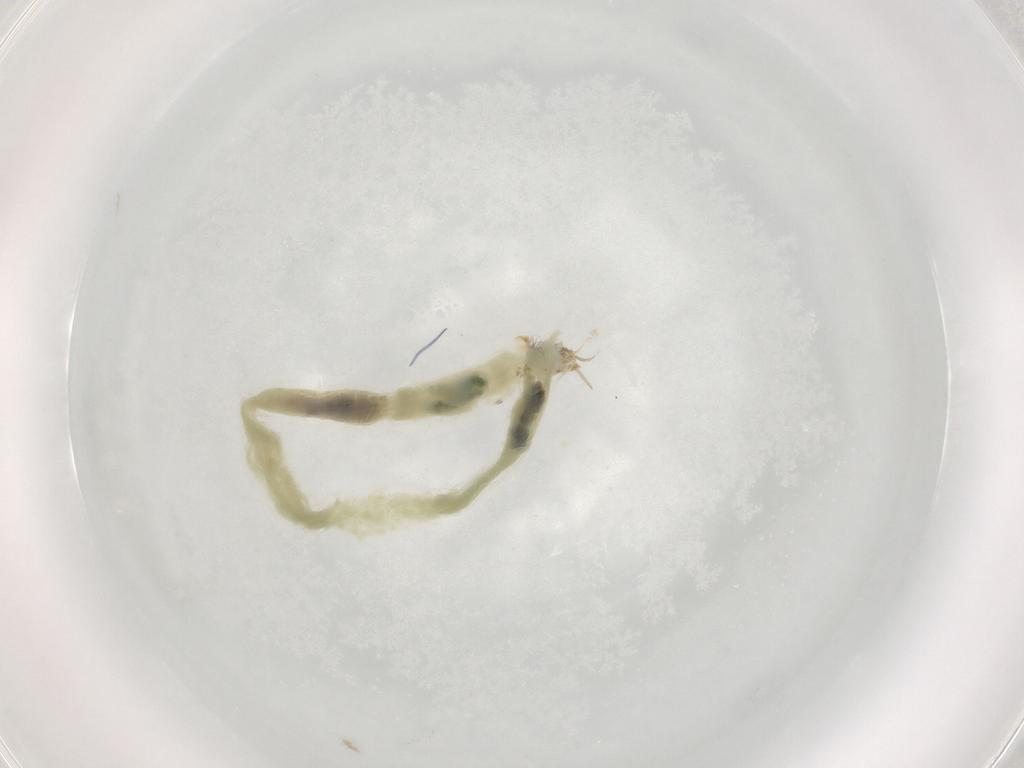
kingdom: Animalia
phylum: Arthropoda
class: Insecta
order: Diptera
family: Chironomidae
